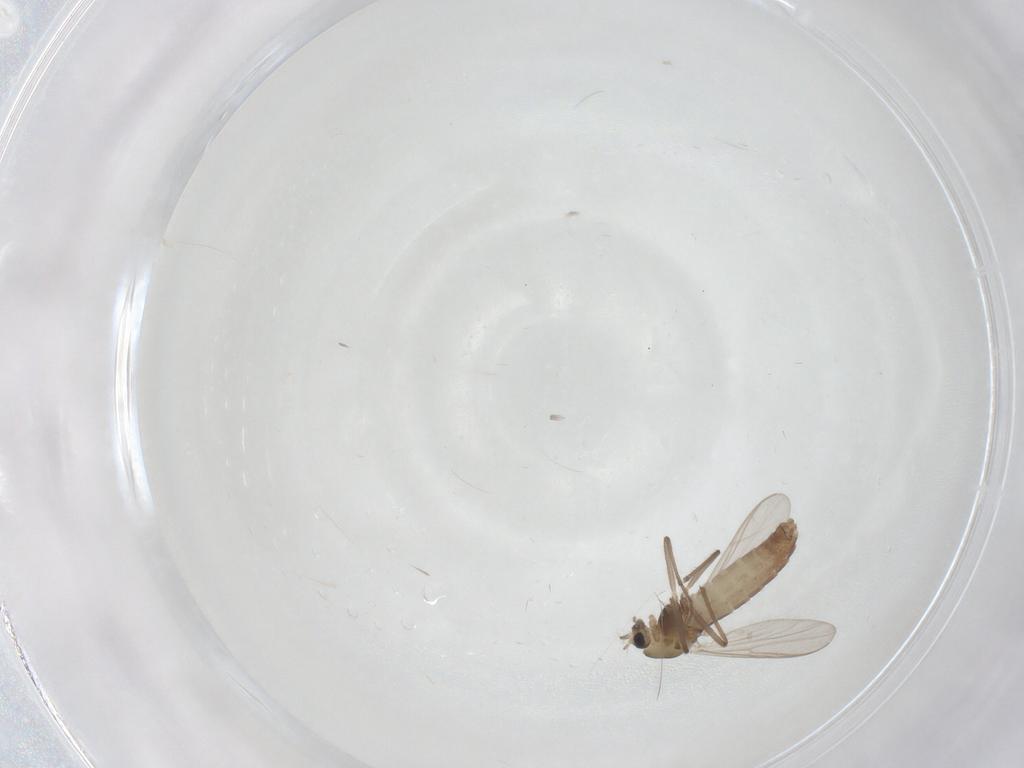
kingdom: Animalia
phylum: Arthropoda
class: Insecta
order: Diptera
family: Chironomidae
